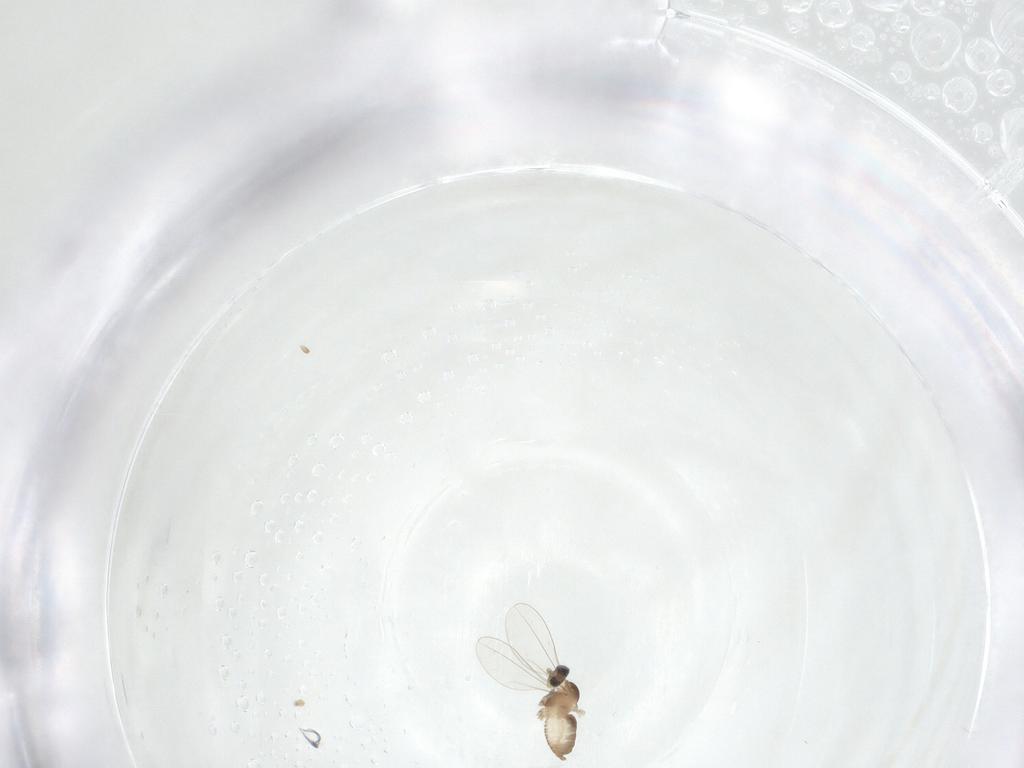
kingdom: Animalia
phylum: Arthropoda
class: Insecta
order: Diptera
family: Cecidomyiidae
